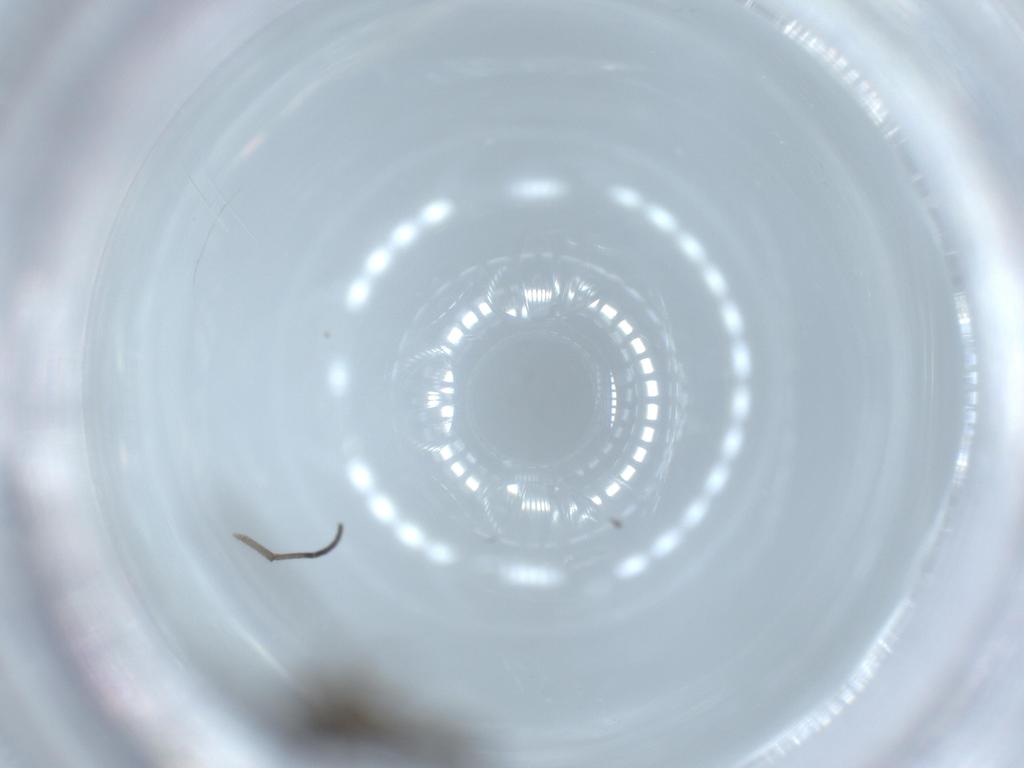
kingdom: Animalia
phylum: Arthropoda
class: Insecta
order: Diptera
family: Sciaridae
